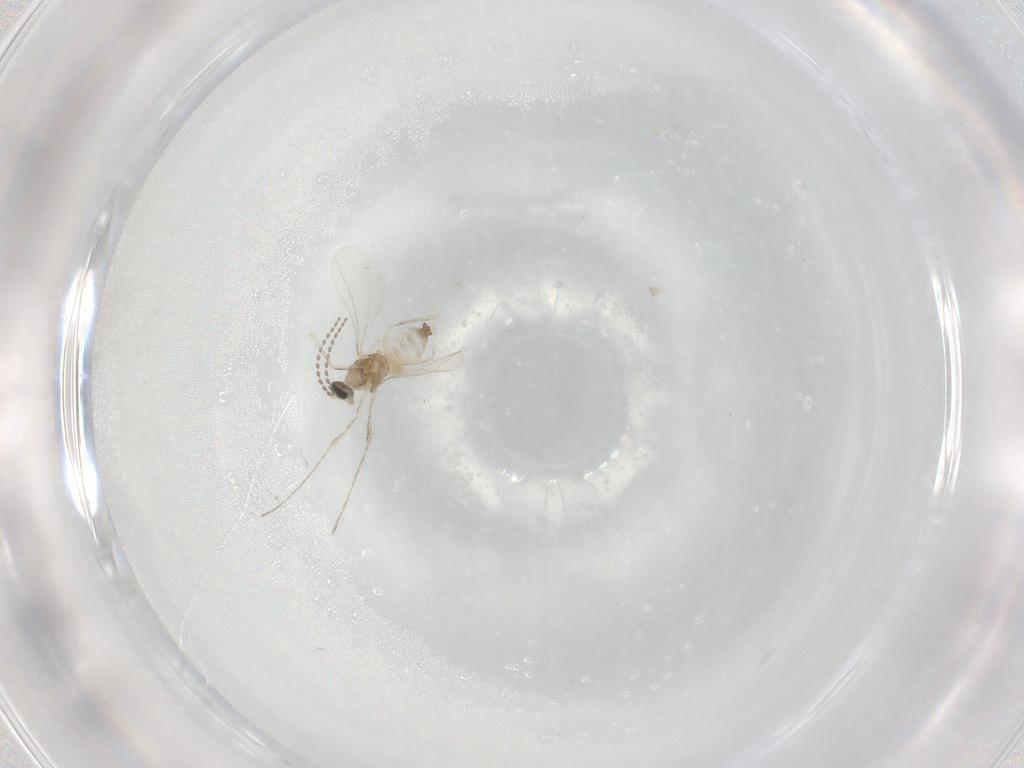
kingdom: Animalia
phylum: Arthropoda
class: Insecta
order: Diptera
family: Cecidomyiidae
